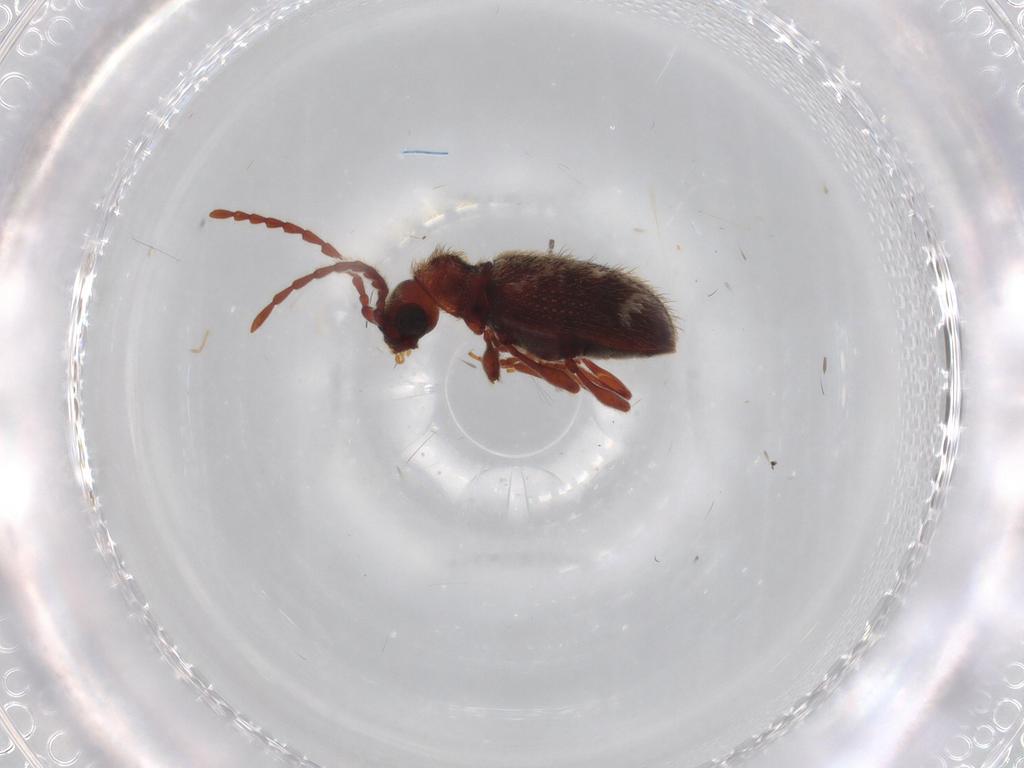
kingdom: Animalia
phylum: Arthropoda
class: Insecta
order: Coleoptera
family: Ptinidae
